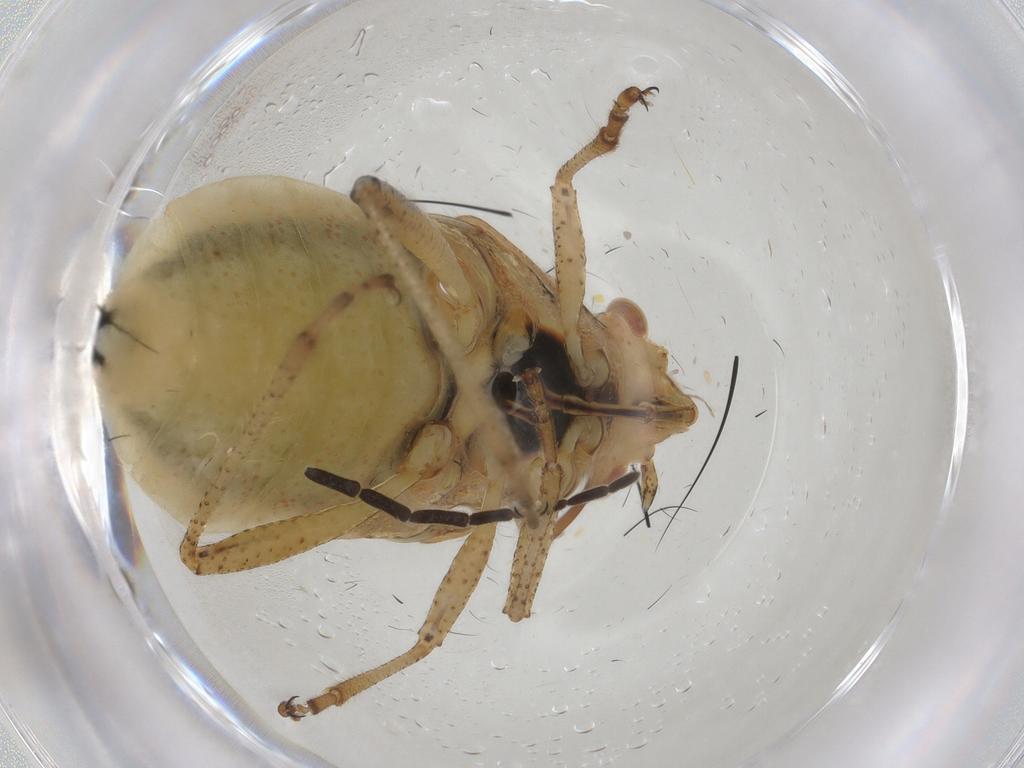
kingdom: Animalia
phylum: Arthropoda
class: Insecta
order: Hemiptera
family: Rhopalidae
